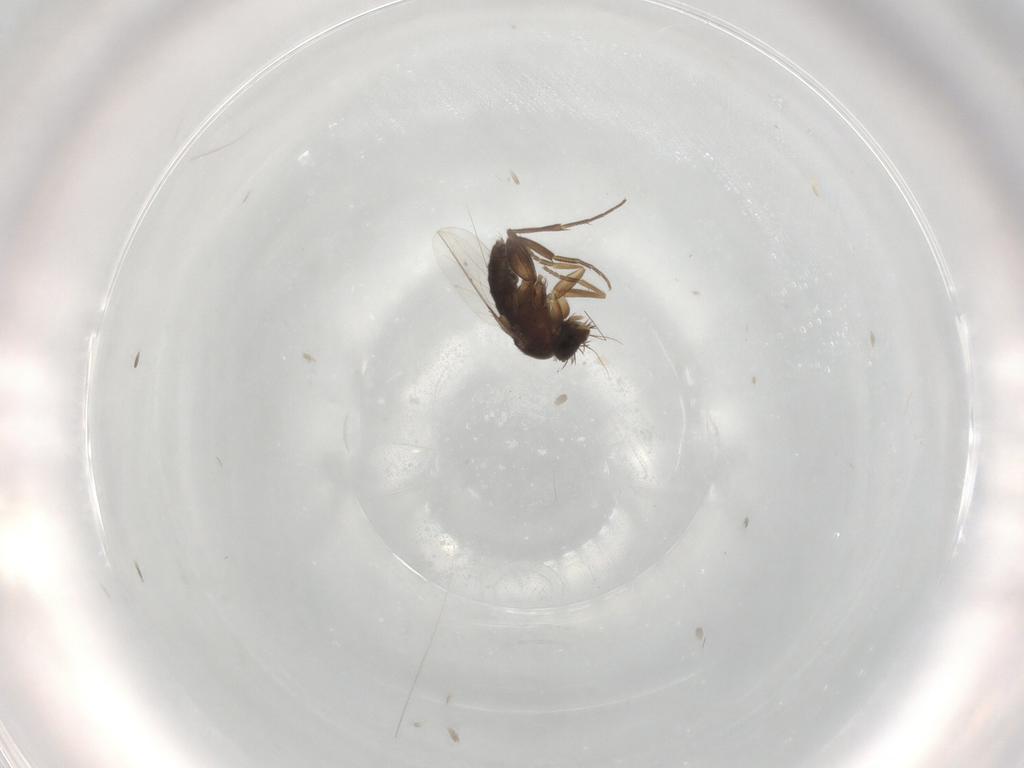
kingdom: Animalia
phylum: Arthropoda
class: Insecta
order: Diptera
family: Phoridae
